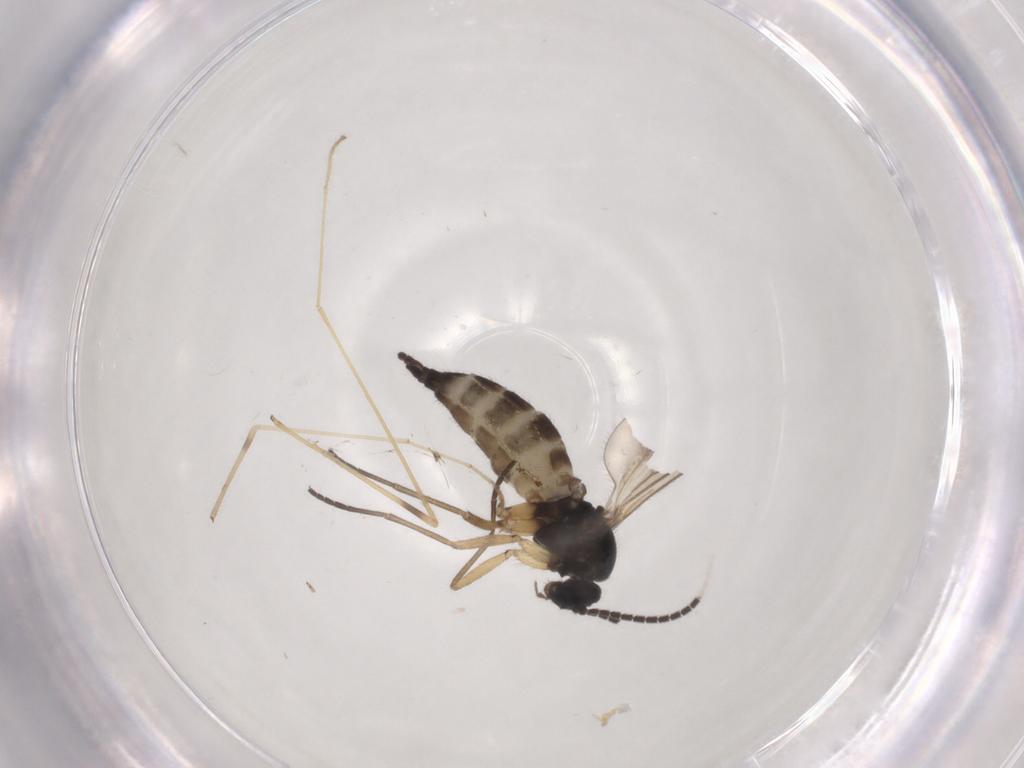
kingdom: Animalia
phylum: Arthropoda
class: Insecta
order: Diptera
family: Sciaridae
